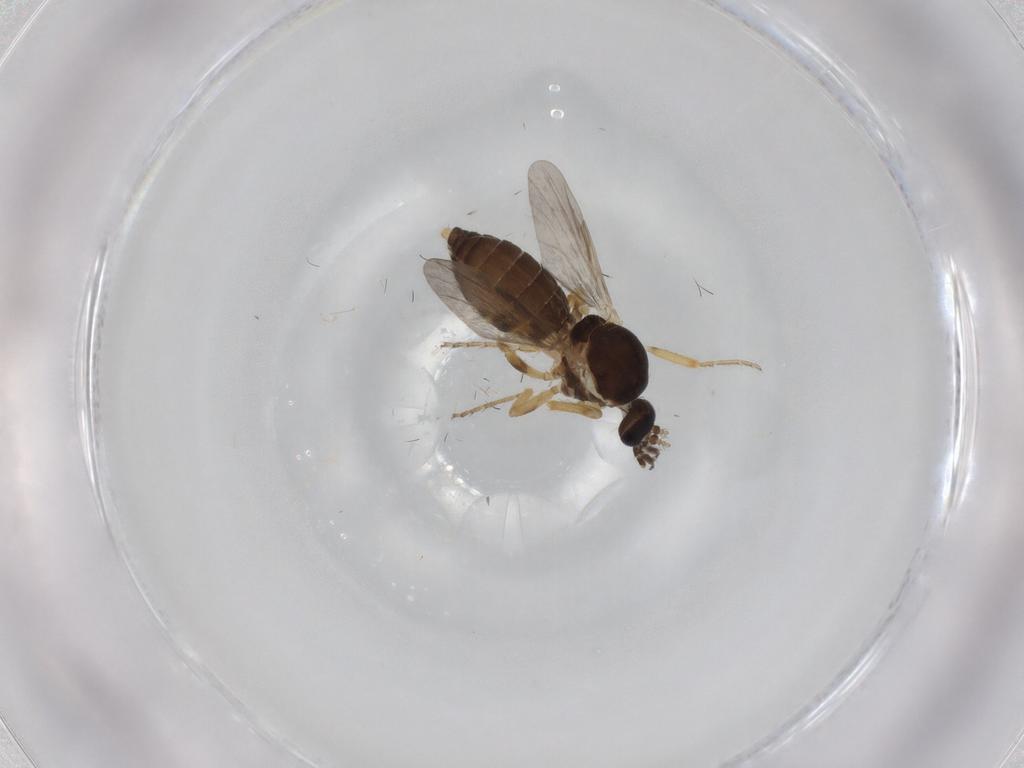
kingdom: Animalia
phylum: Arthropoda
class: Insecta
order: Diptera
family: Ceratopogonidae
